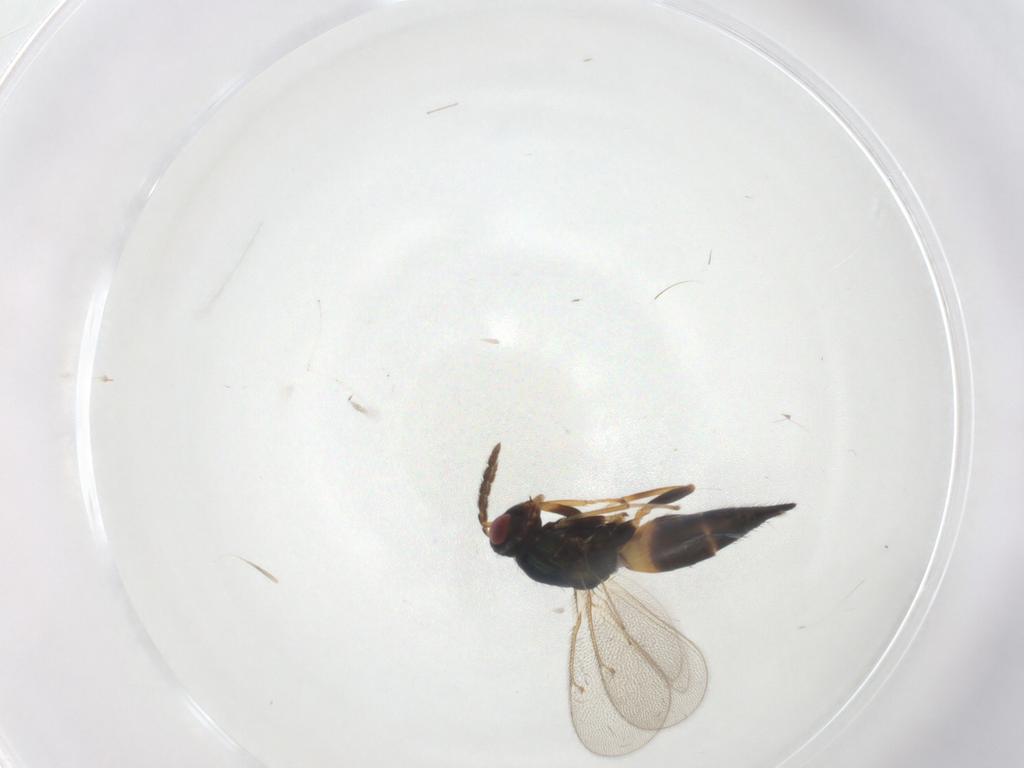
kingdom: Animalia
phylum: Arthropoda
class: Insecta
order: Hymenoptera
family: Eulophidae
